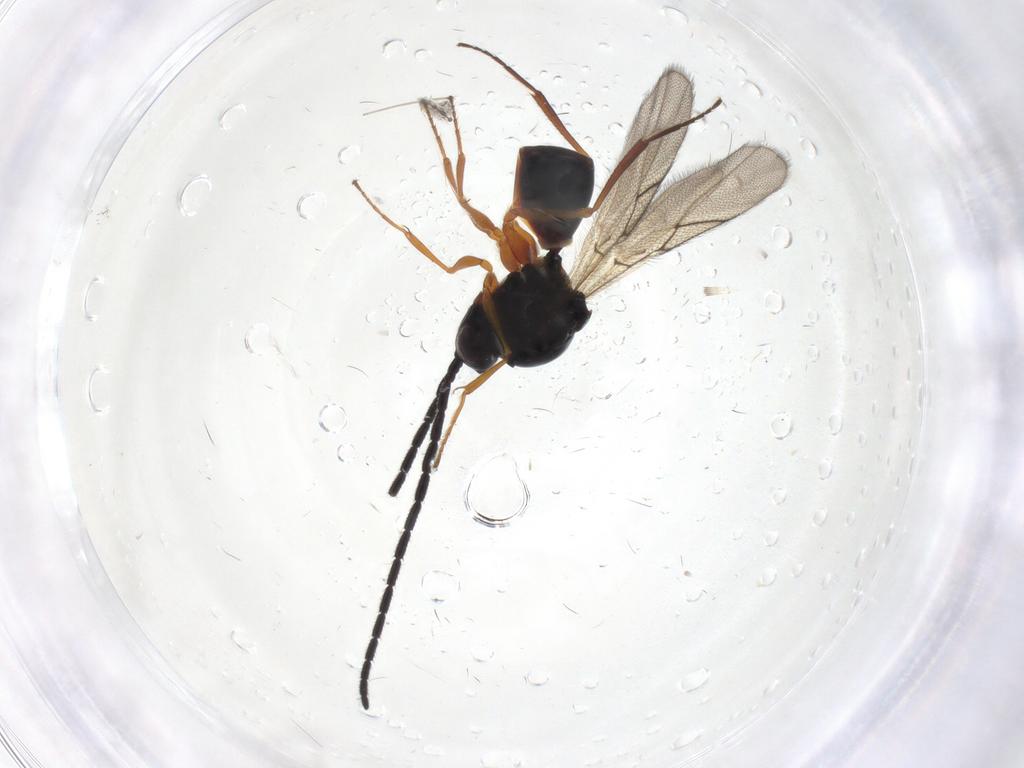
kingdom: Animalia
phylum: Arthropoda
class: Insecta
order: Hymenoptera
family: Figitidae
